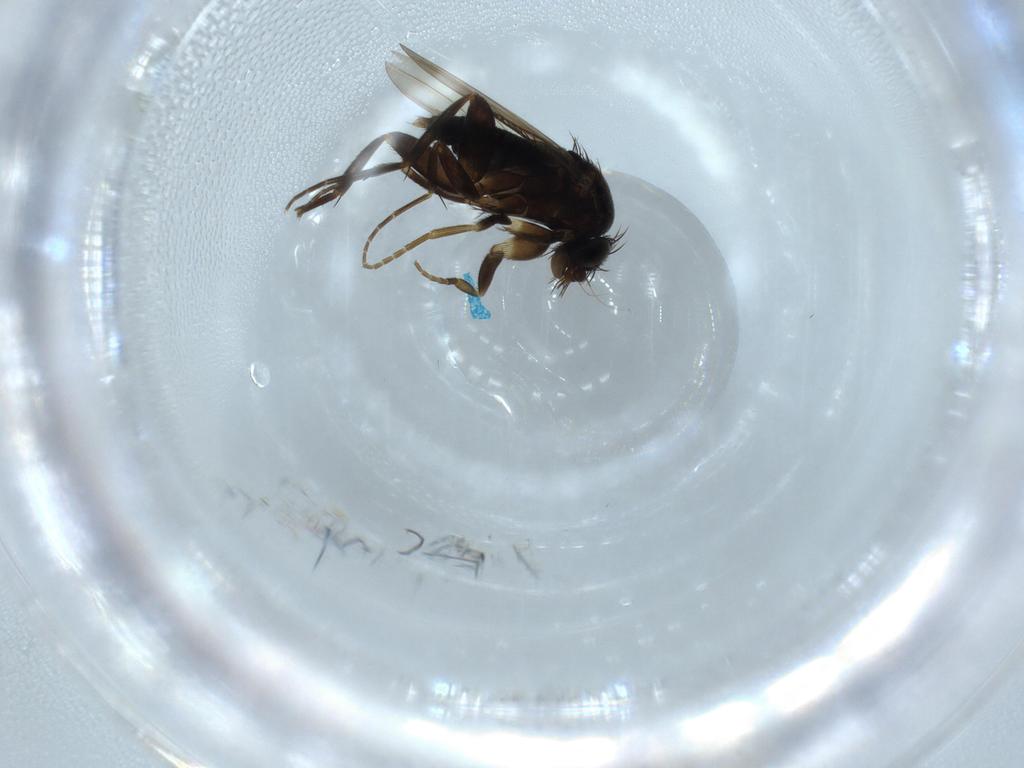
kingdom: Animalia
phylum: Arthropoda
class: Insecta
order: Diptera
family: Phoridae
